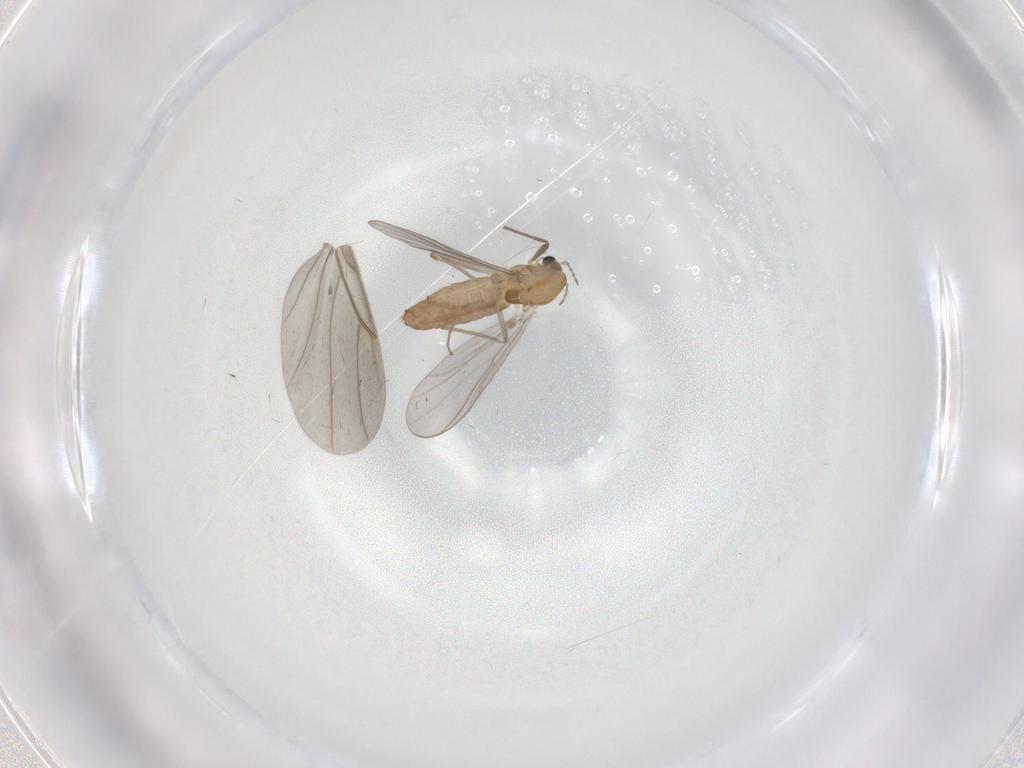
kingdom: Animalia
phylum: Arthropoda
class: Insecta
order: Diptera
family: Chironomidae
